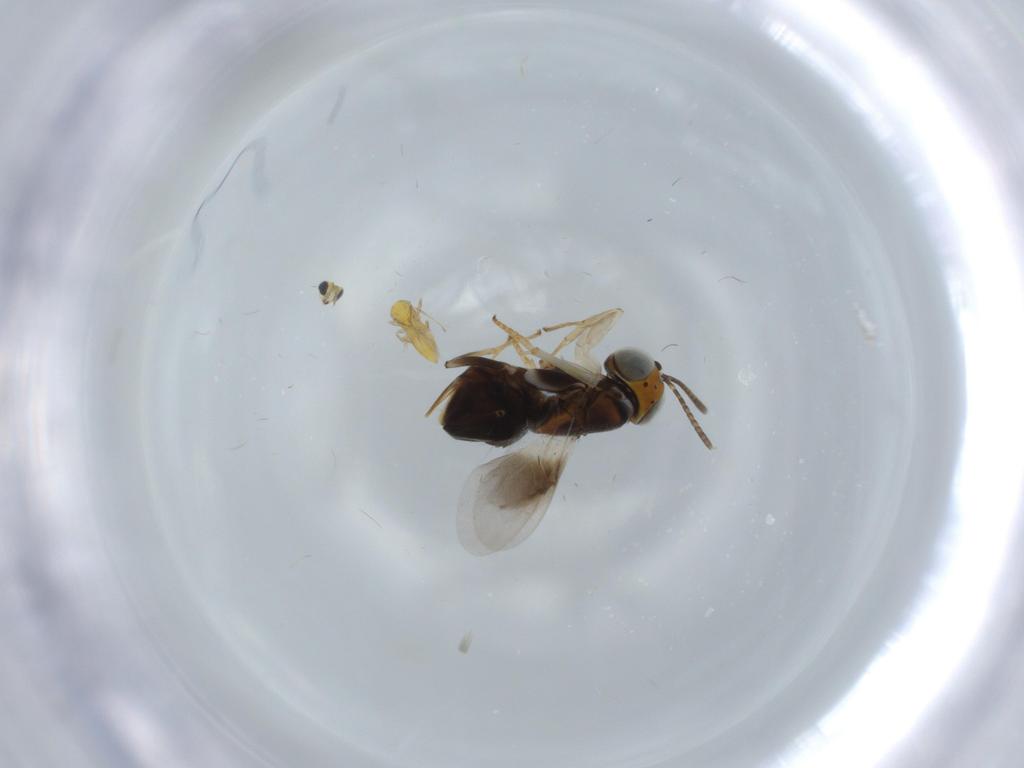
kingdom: Animalia
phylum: Arthropoda
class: Insecta
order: Hymenoptera
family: Trichogrammatidae
